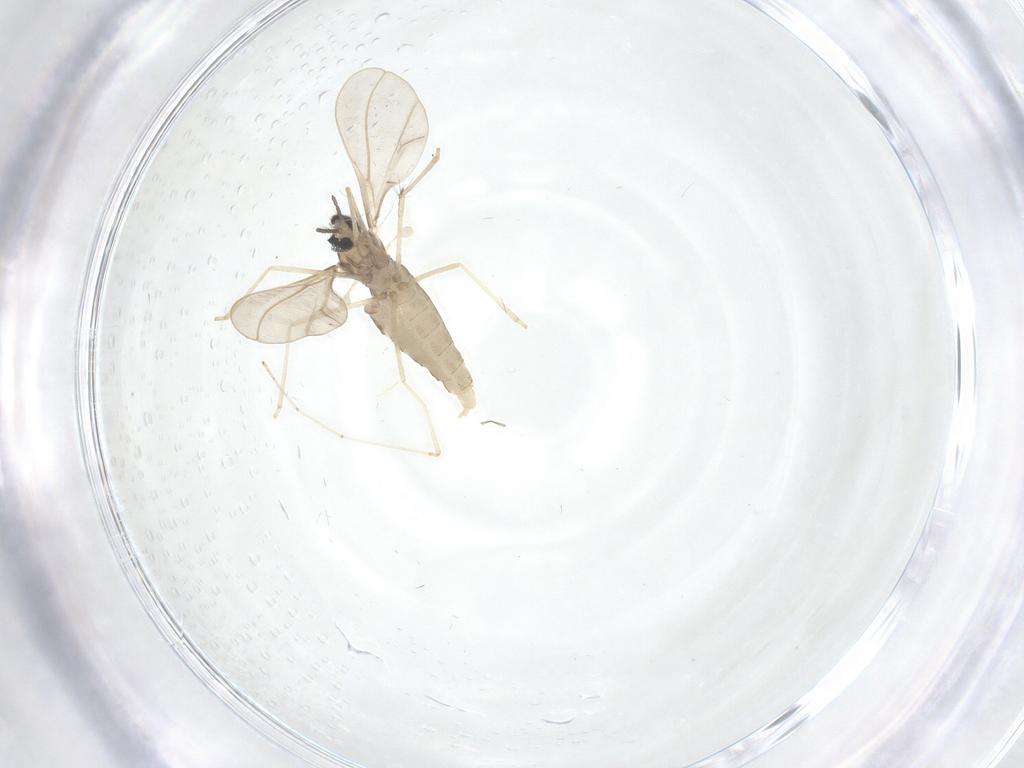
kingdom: Animalia
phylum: Arthropoda
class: Insecta
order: Diptera
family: Cecidomyiidae
